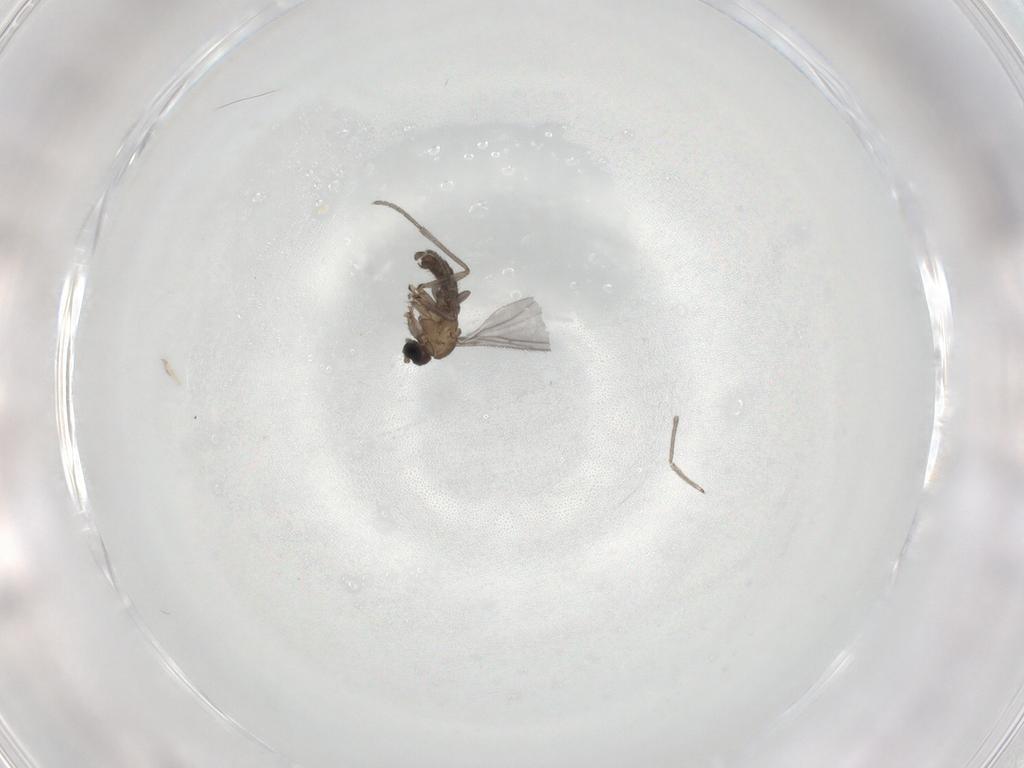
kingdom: Animalia
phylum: Arthropoda
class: Insecta
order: Diptera
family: Sciaridae
